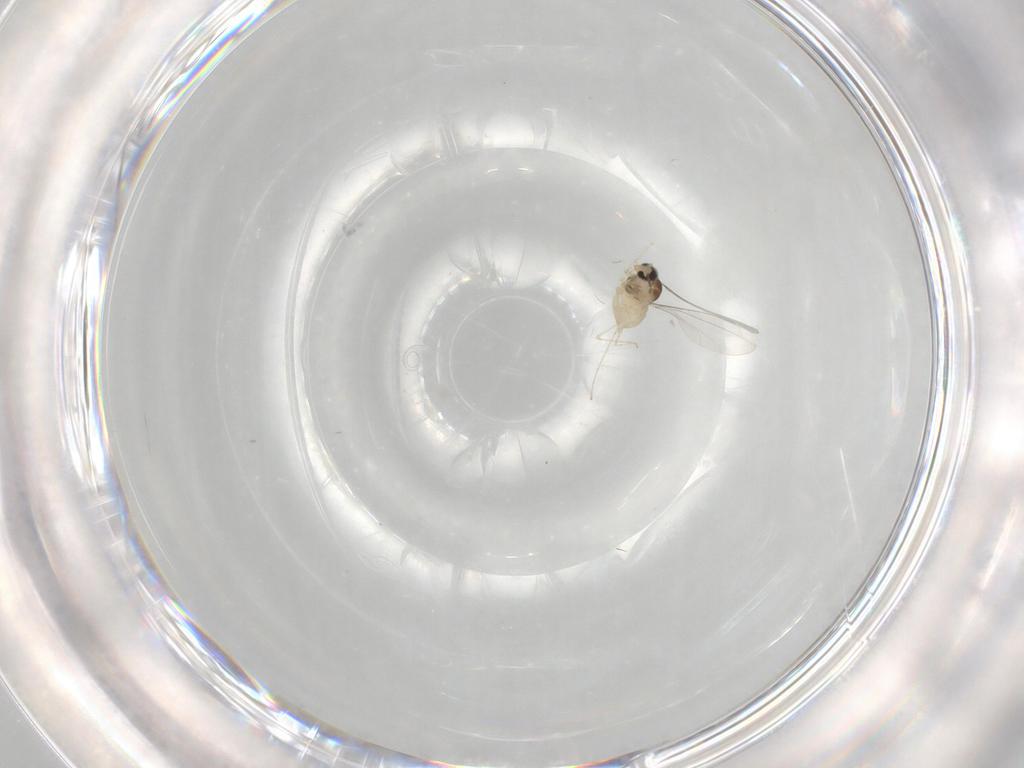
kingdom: Animalia
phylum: Arthropoda
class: Insecta
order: Diptera
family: Cecidomyiidae
